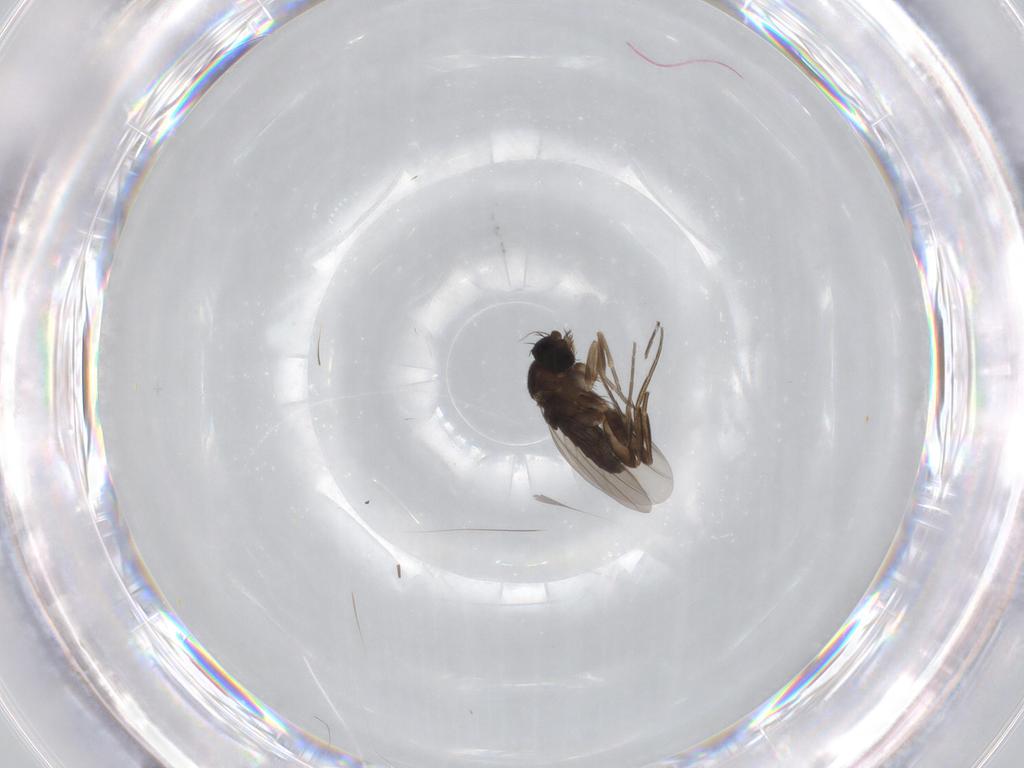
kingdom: Animalia
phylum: Arthropoda
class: Insecta
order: Diptera
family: Phoridae
